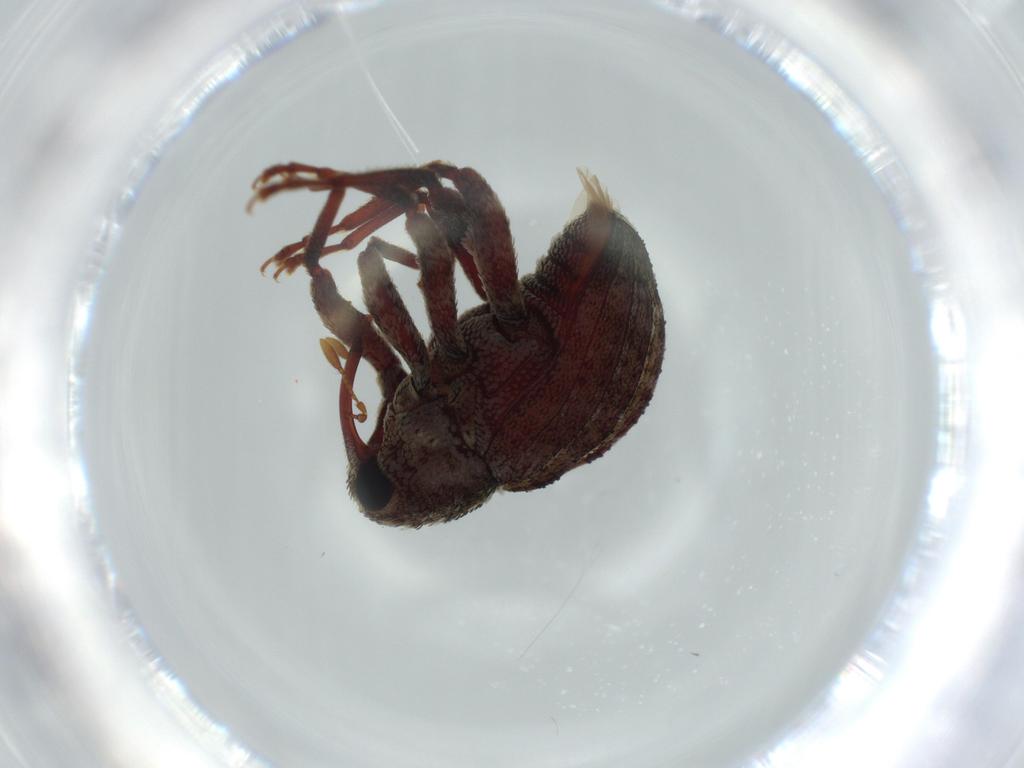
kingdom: Animalia
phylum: Arthropoda
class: Insecta
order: Coleoptera
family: Curculionidae
